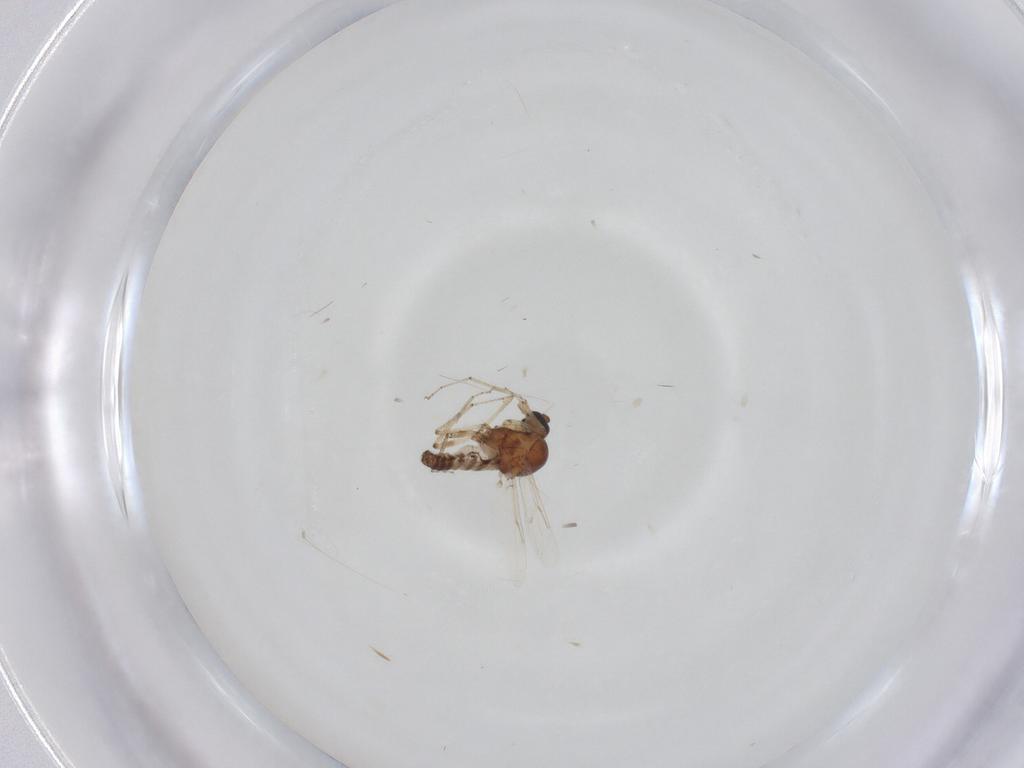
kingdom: Animalia
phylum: Arthropoda
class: Insecta
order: Diptera
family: Ceratopogonidae
